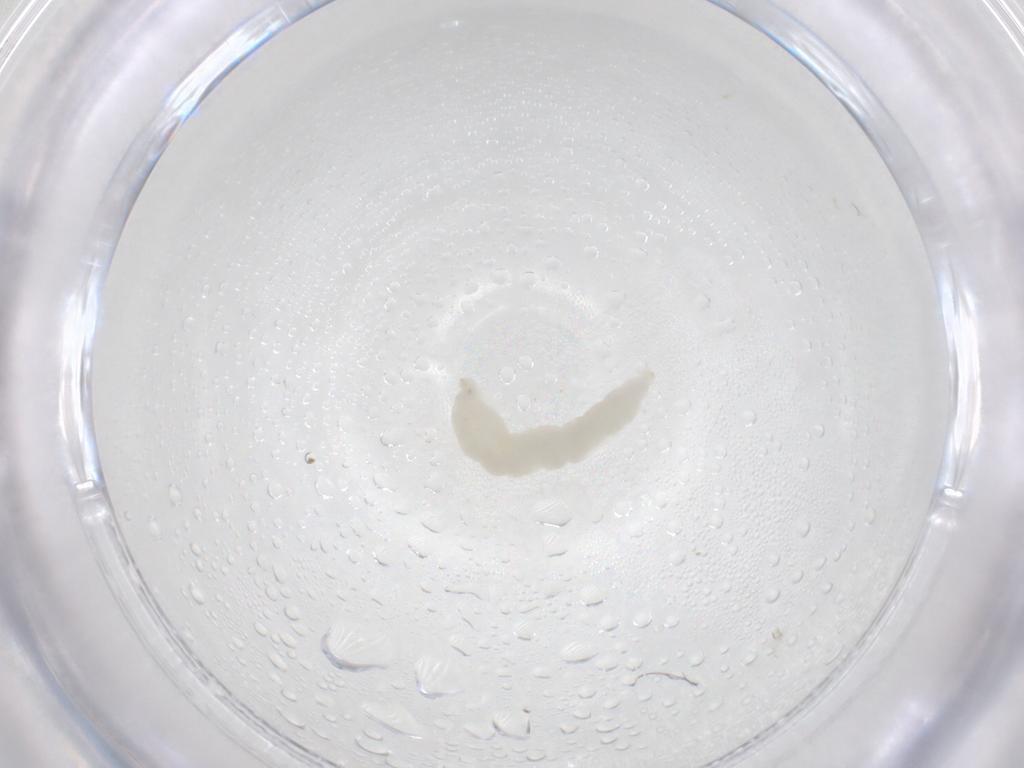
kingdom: Animalia
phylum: Arthropoda
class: Insecta
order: Diptera
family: Cecidomyiidae
